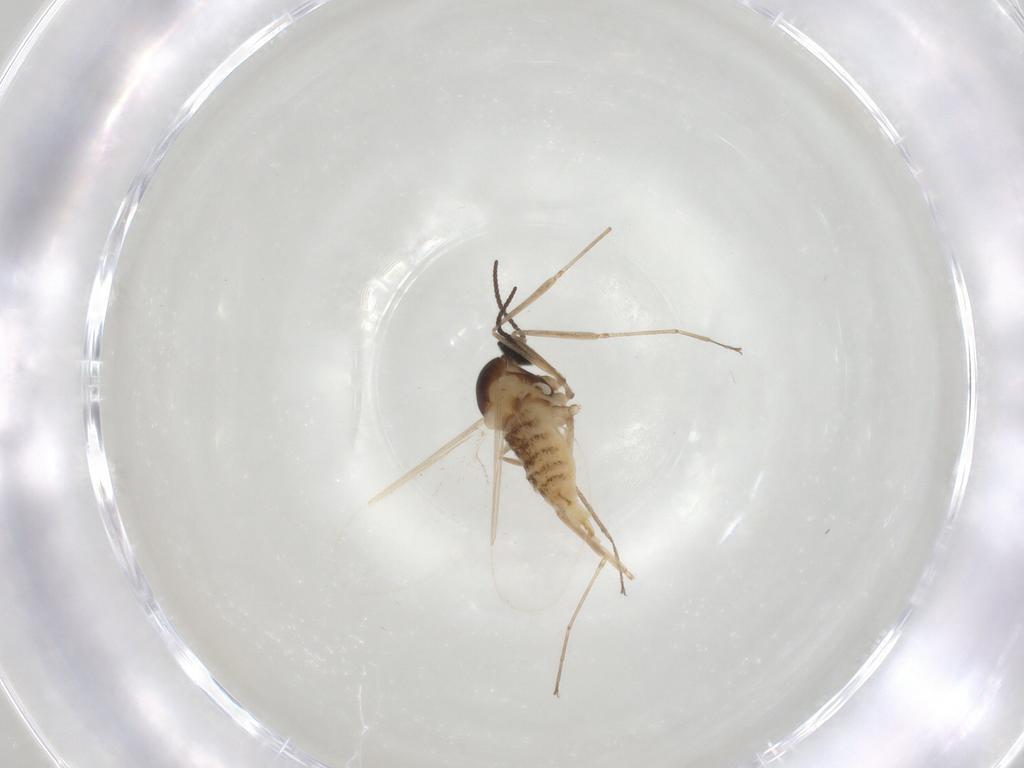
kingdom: Animalia
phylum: Arthropoda
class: Insecta
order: Diptera
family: Cecidomyiidae
